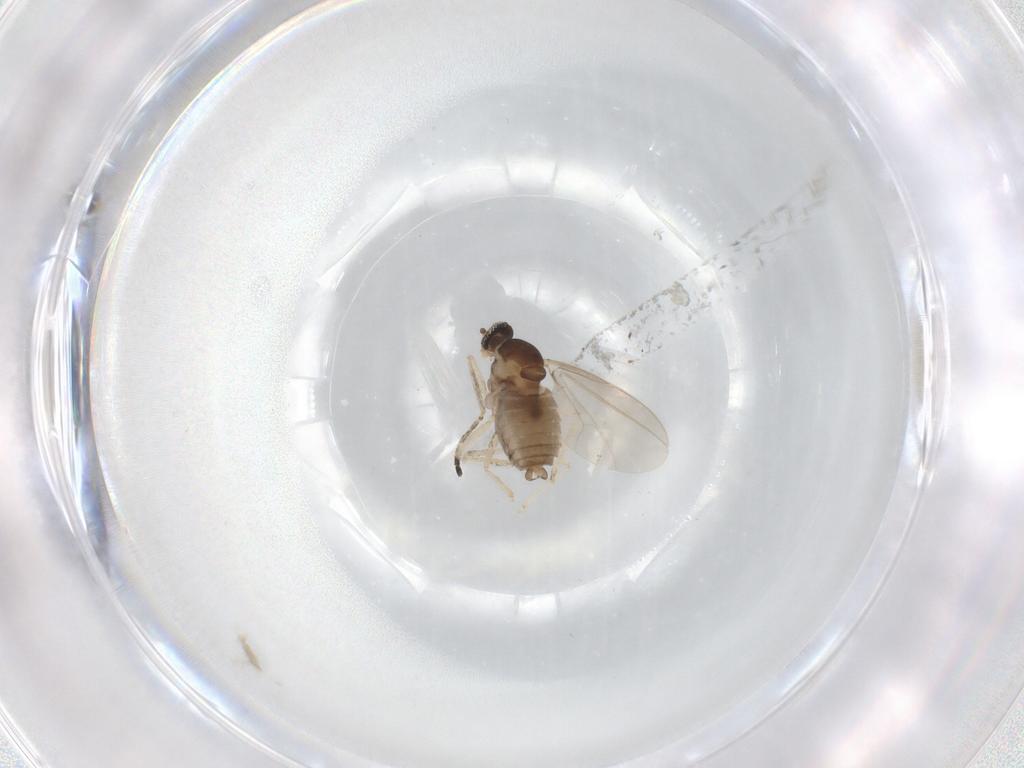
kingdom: Animalia
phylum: Arthropoda
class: Insecta
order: Diptera
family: Cecidomyiidae
